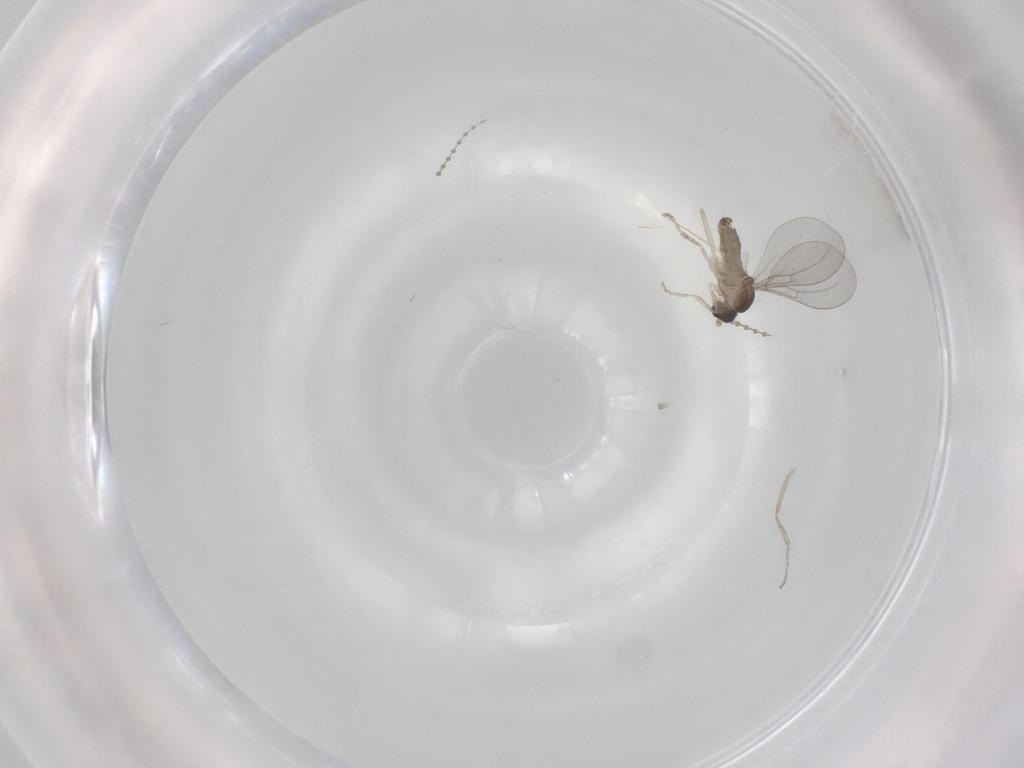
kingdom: Animalia
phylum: Arthropoda
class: Insecta
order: Diptera
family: Cecidomyiidae
